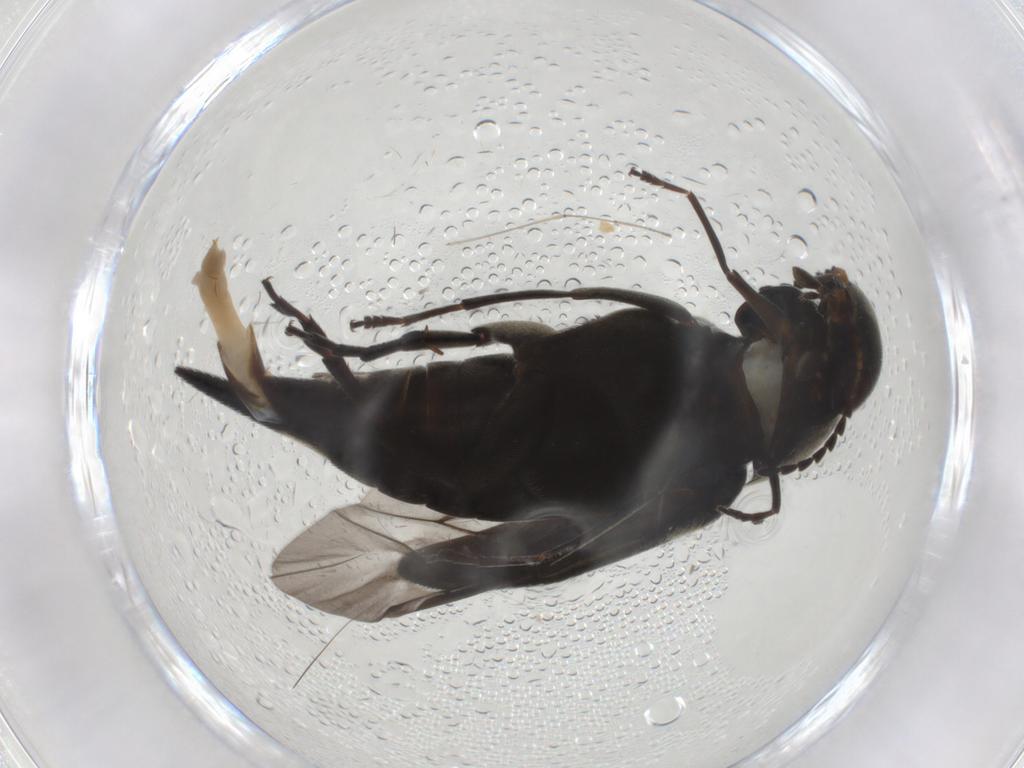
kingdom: Animalia
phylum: Arthropoda
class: Insecta
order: Coleoptera
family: Mordellidae
